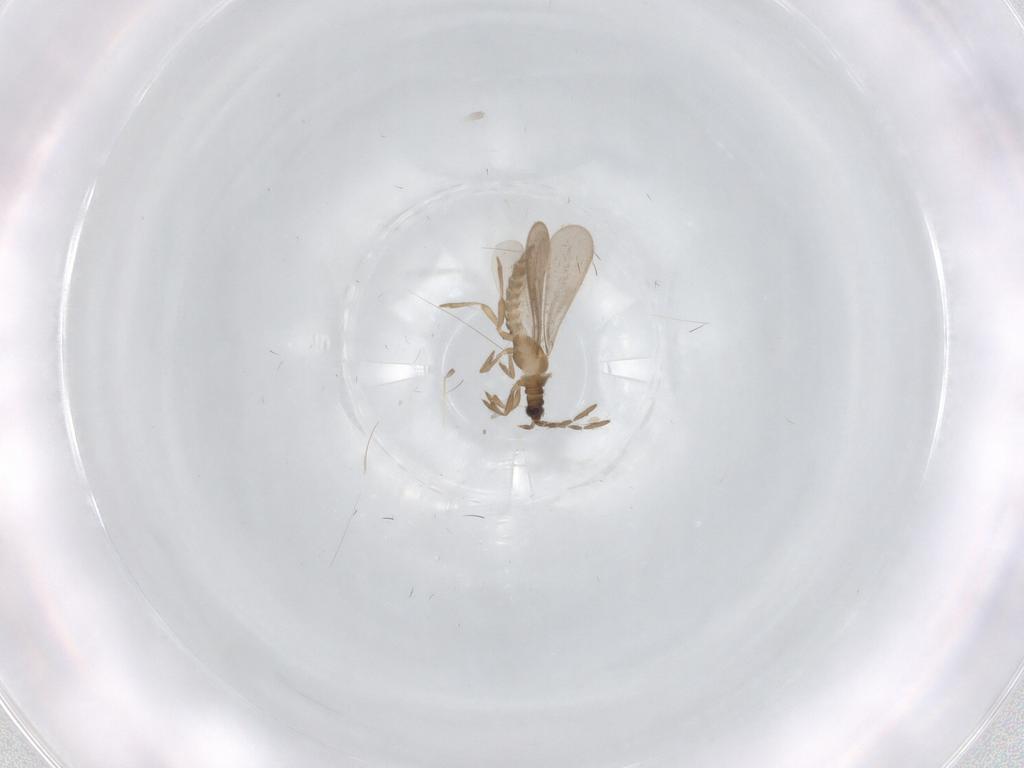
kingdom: Animalia
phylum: Arthropoda
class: Insecta
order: Hemiptera
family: Enicocephalidae
